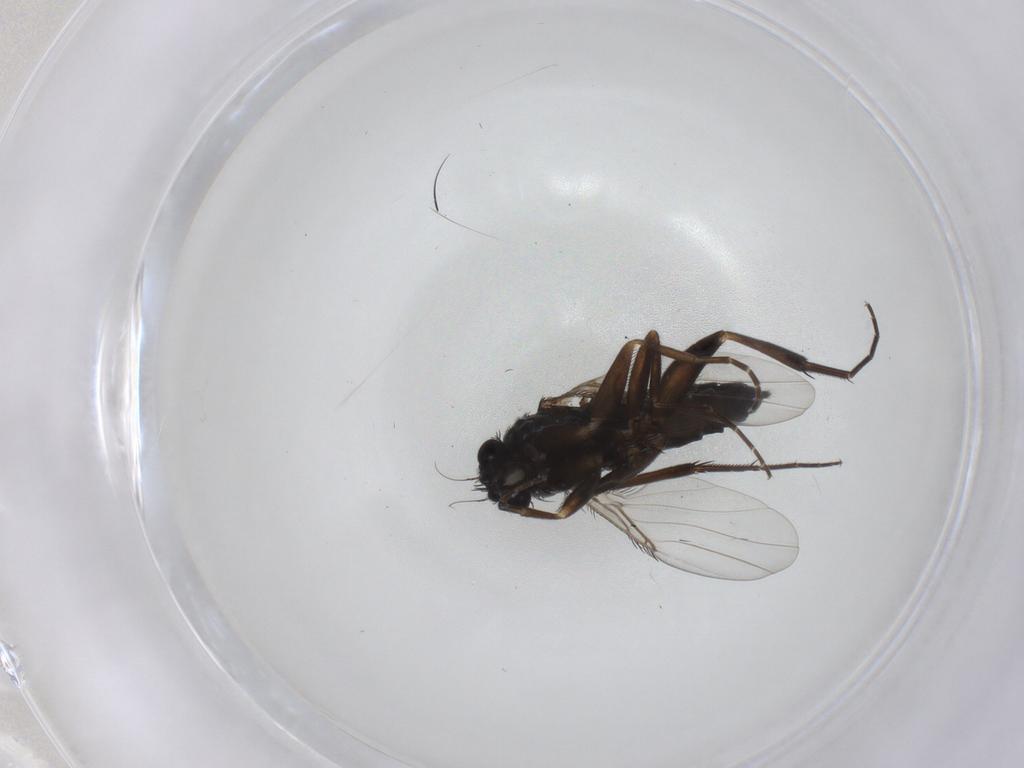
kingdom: Animalia
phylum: Arthropoda
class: Insecta
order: Diptera
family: Phoridae
